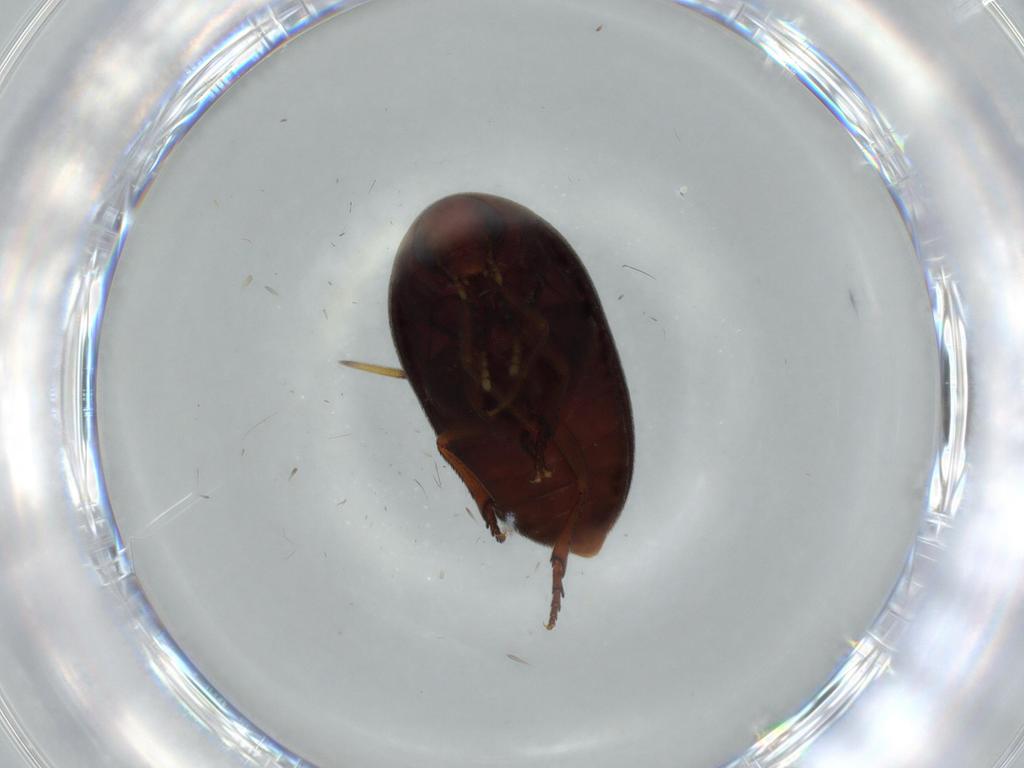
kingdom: Animalia
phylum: Arthropoda
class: Insecta
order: Coleoptera
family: Eucinetidae
